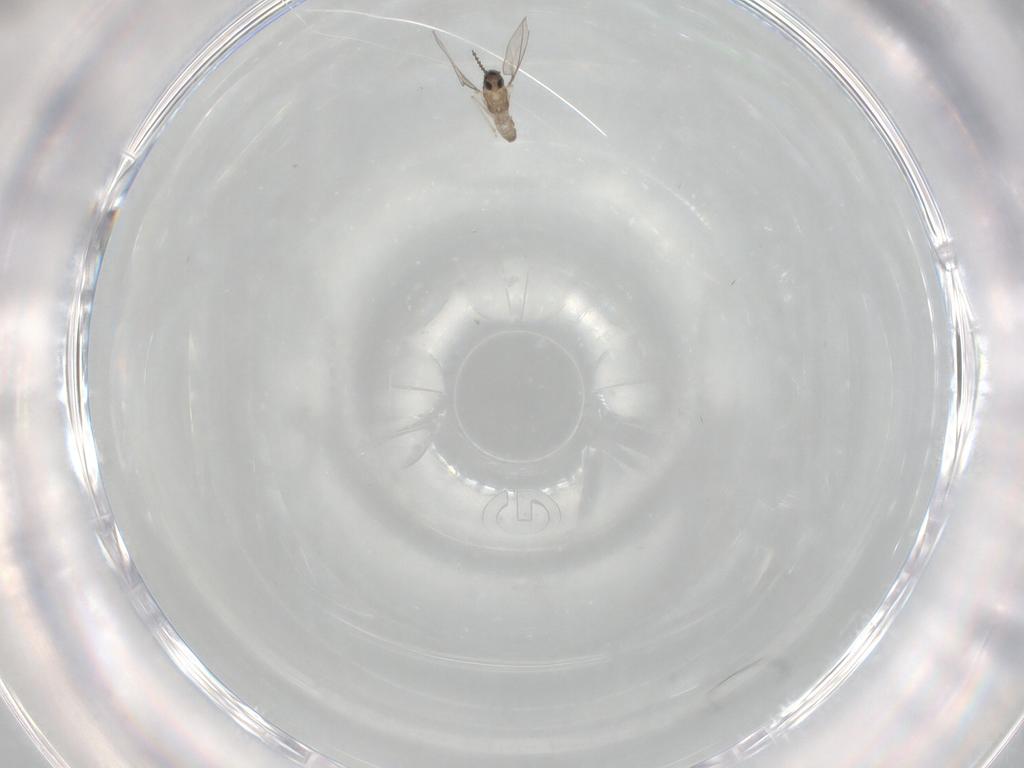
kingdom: Animalia
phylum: Arthropoda
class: Insecta
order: Diptera
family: Cecidomyiidae
